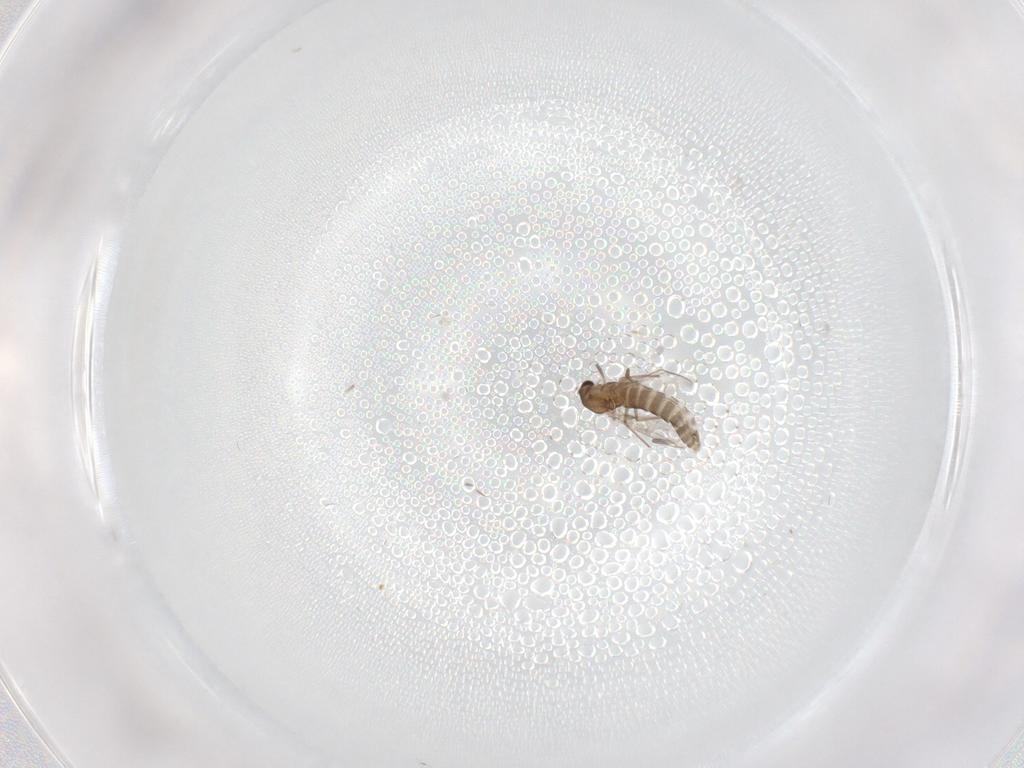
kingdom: Animalia
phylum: Arthropoda
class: Insecta
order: Diptera
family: Chironomidae
